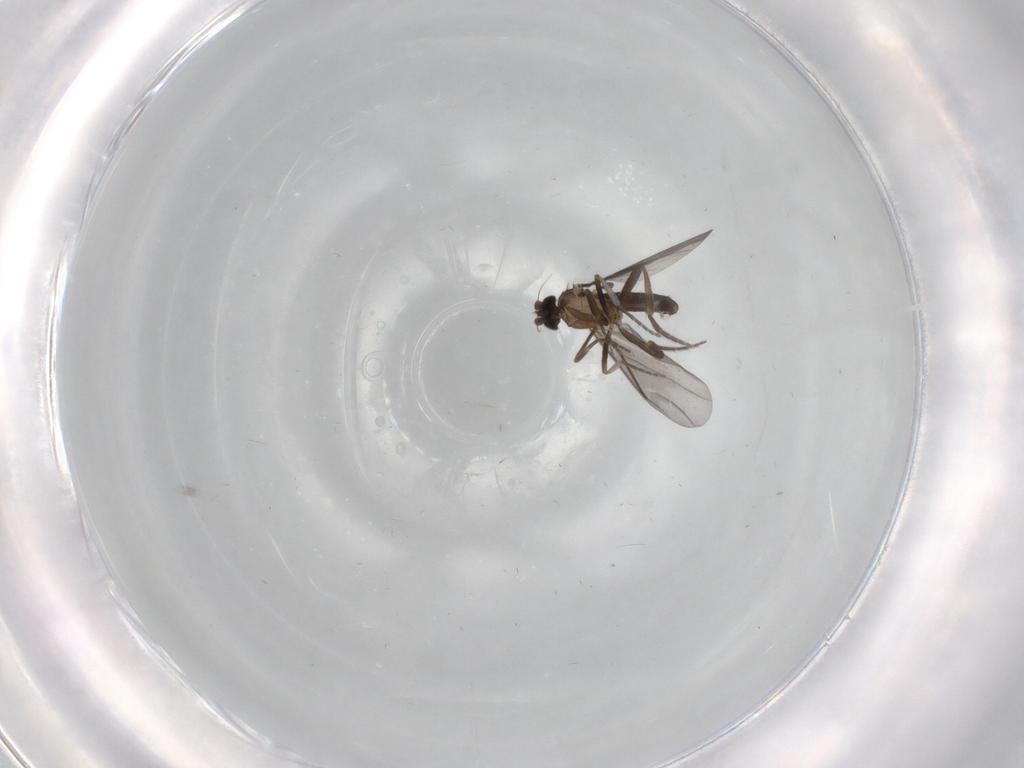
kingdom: Animalia
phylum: Arthropoda
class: Insecta
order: Diptera
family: Phoridae
